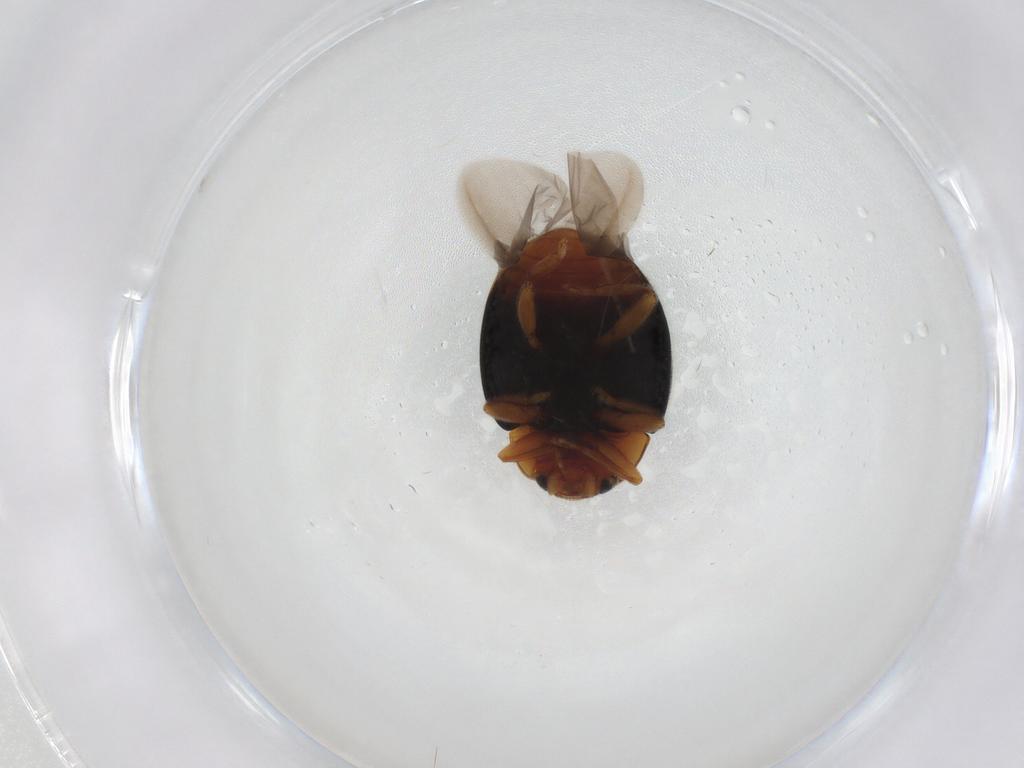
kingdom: Animalia
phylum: Arthropoda
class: Insecta
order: Coleoptera
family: Coccinellidae
